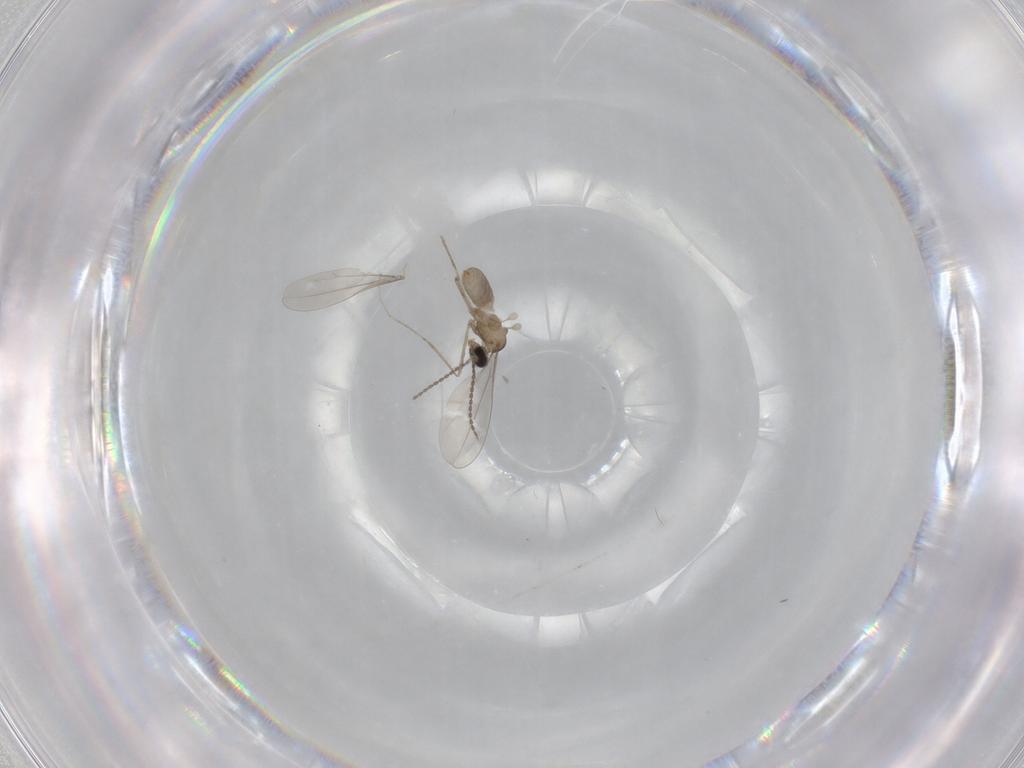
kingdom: Animalia
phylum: Arthropoda
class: Insecta
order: Diptera
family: Cecidomyiidae
